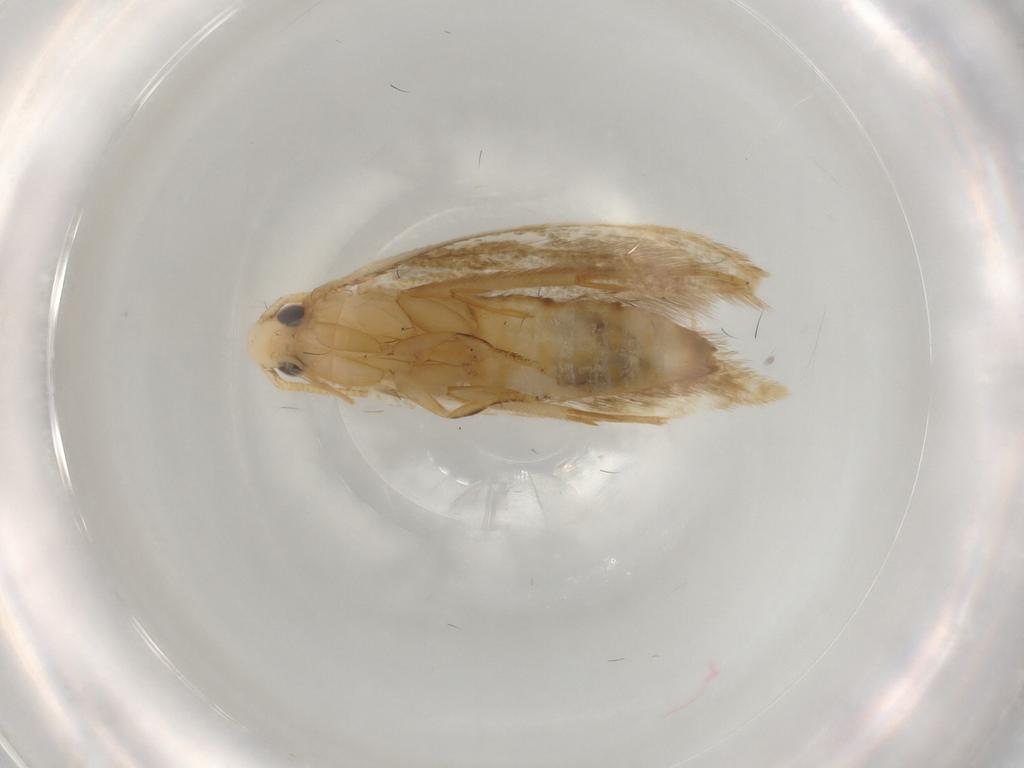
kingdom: Animalia
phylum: Arthropoda
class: Insecta
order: Lepidoptera
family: Tineidae
